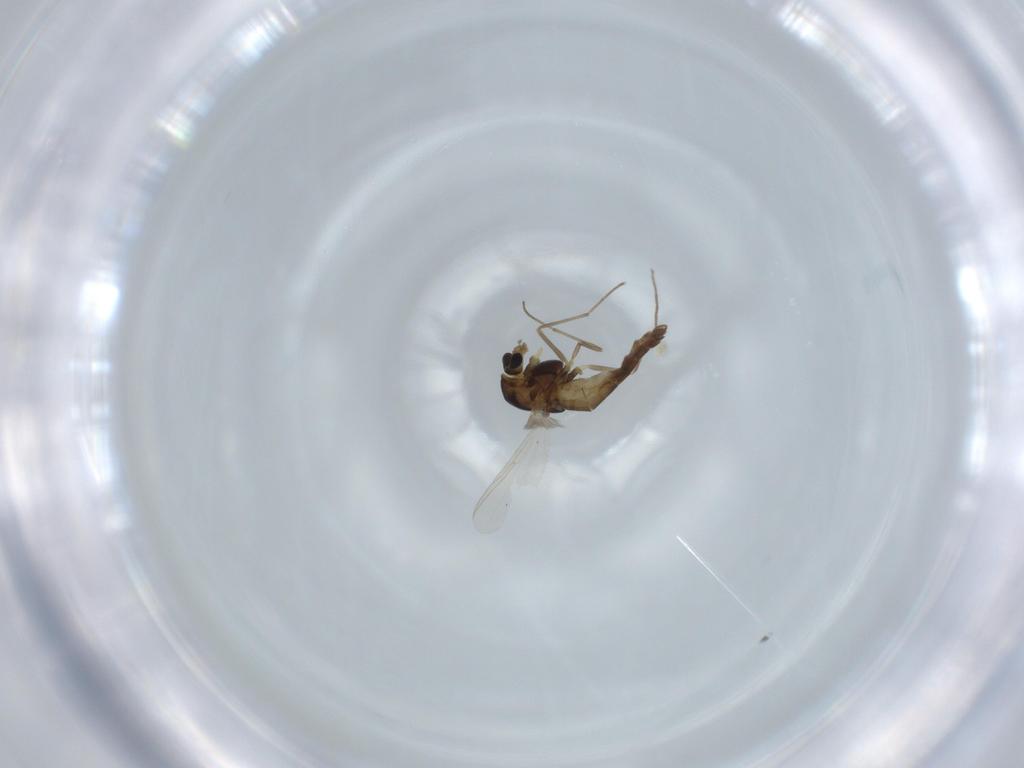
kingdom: Animalia
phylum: Arthropoda
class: Insecta
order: Diptera
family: Chironomidae
